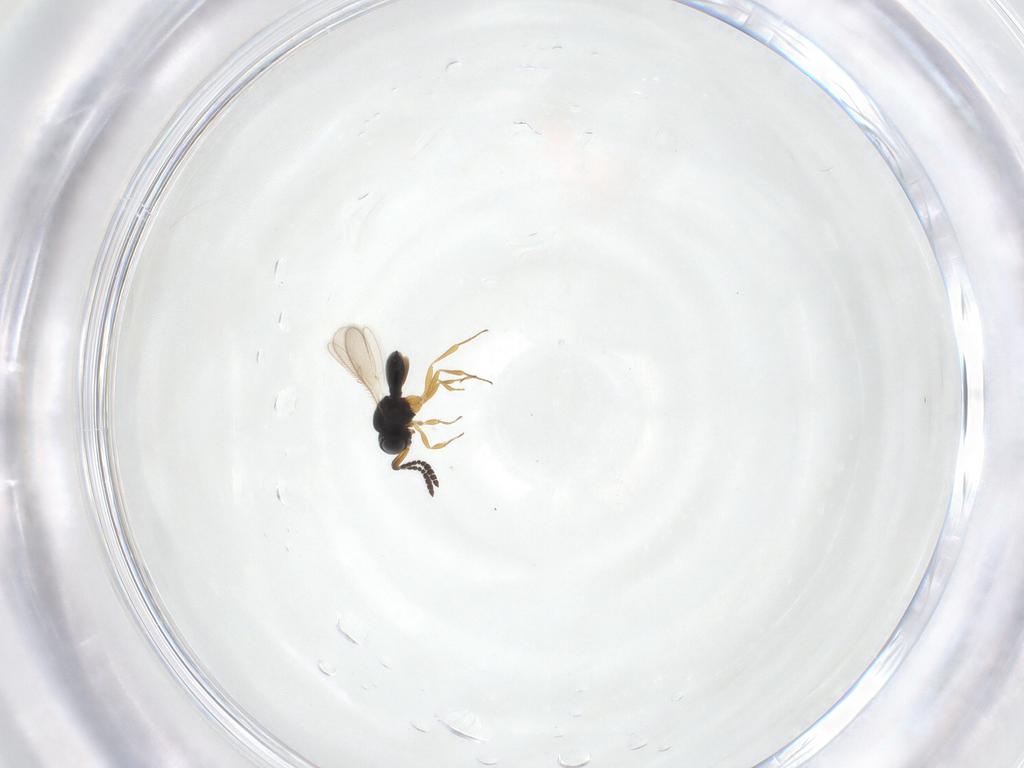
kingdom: Animalia
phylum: Arthropoda
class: Insecta
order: Hymenoptera
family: Scelionidae
